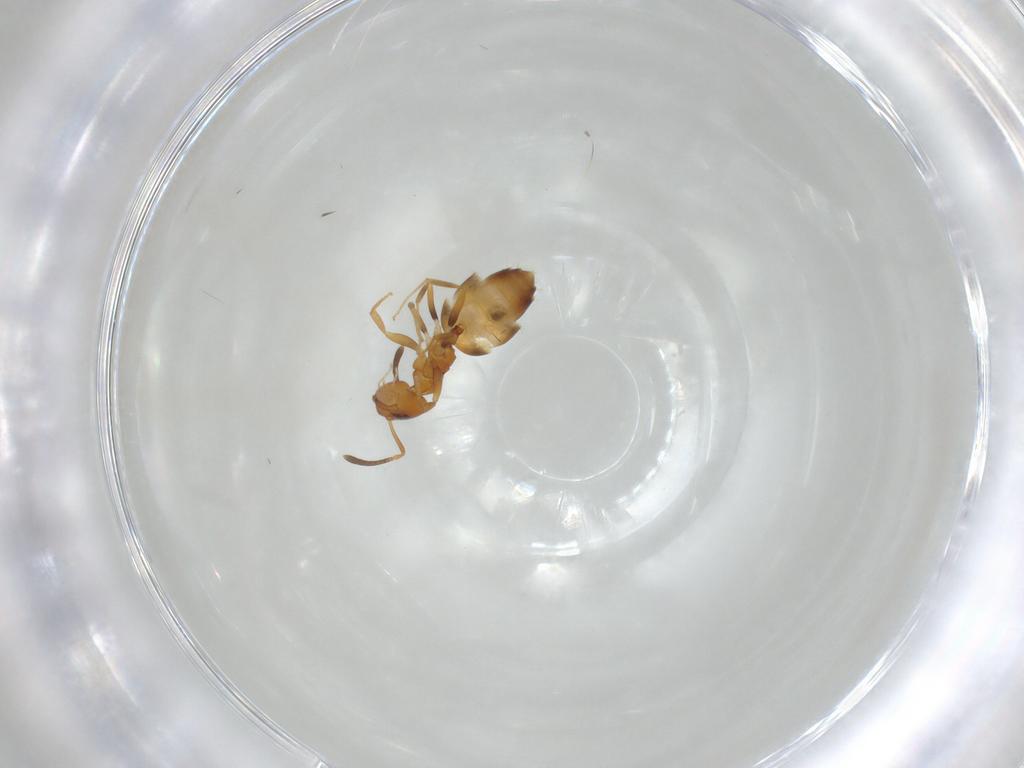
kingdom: Animalia
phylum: Arthropoda
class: Insecta
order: Hymenoptera
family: Formicidae
